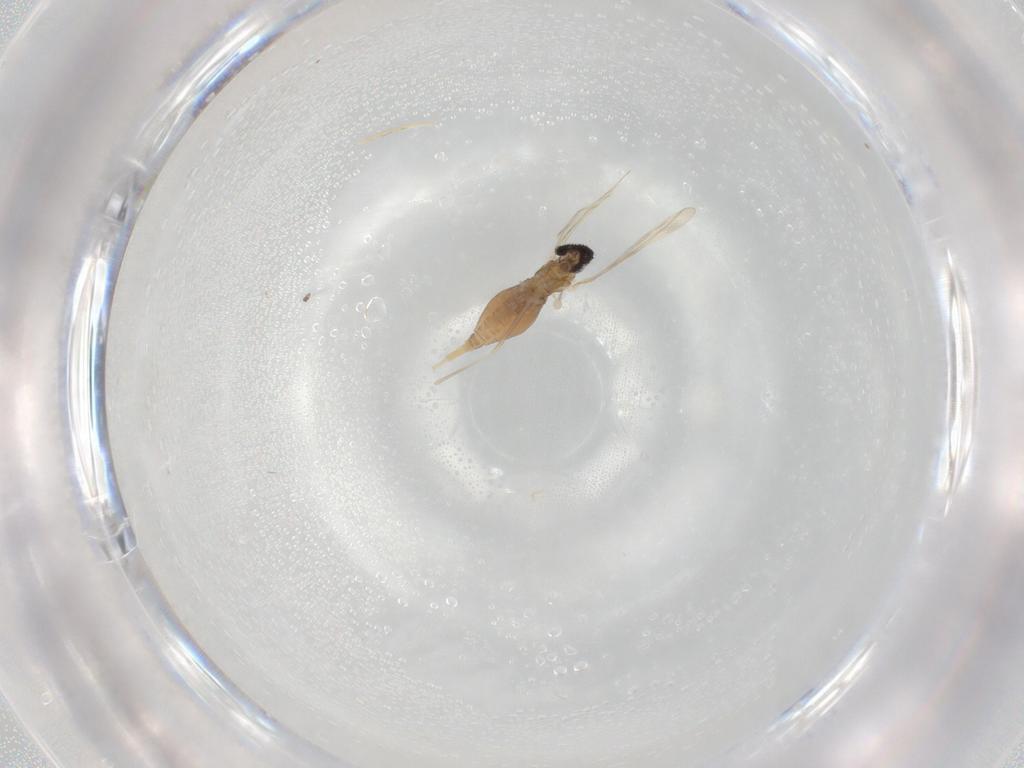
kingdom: Animalia
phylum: Arthropoda
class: Insecta
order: Diptera
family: Cecidomyiidae
